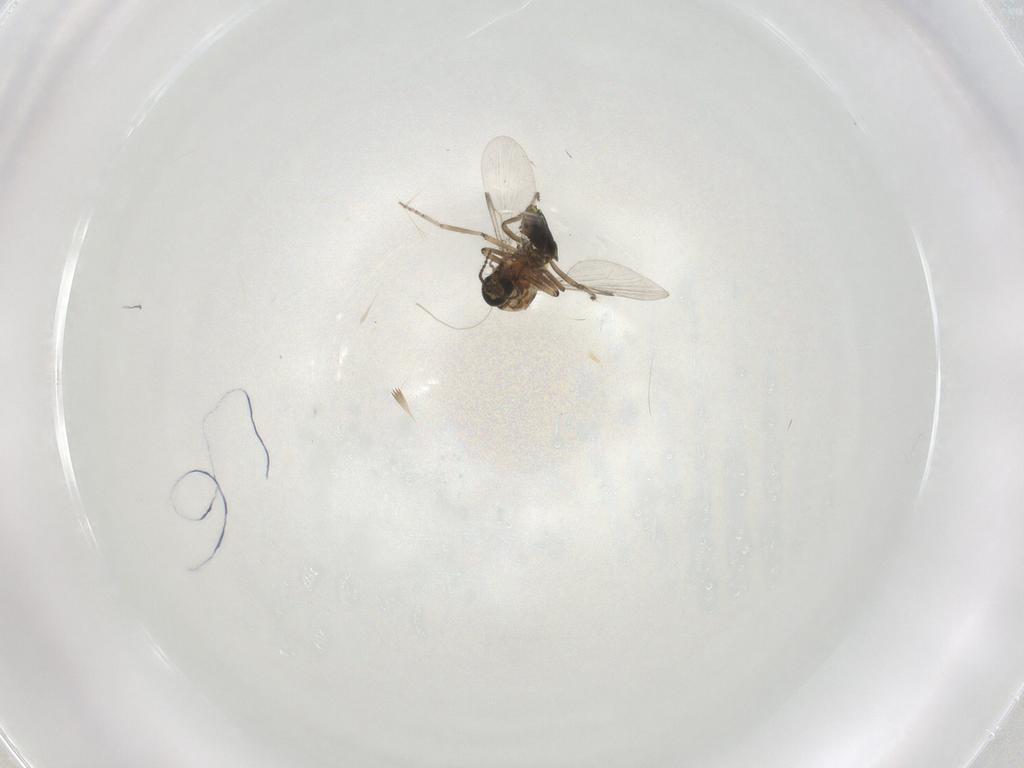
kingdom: Animalia
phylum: Arthropoda
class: Insecta
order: Diptera
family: Ceratopogonidae
